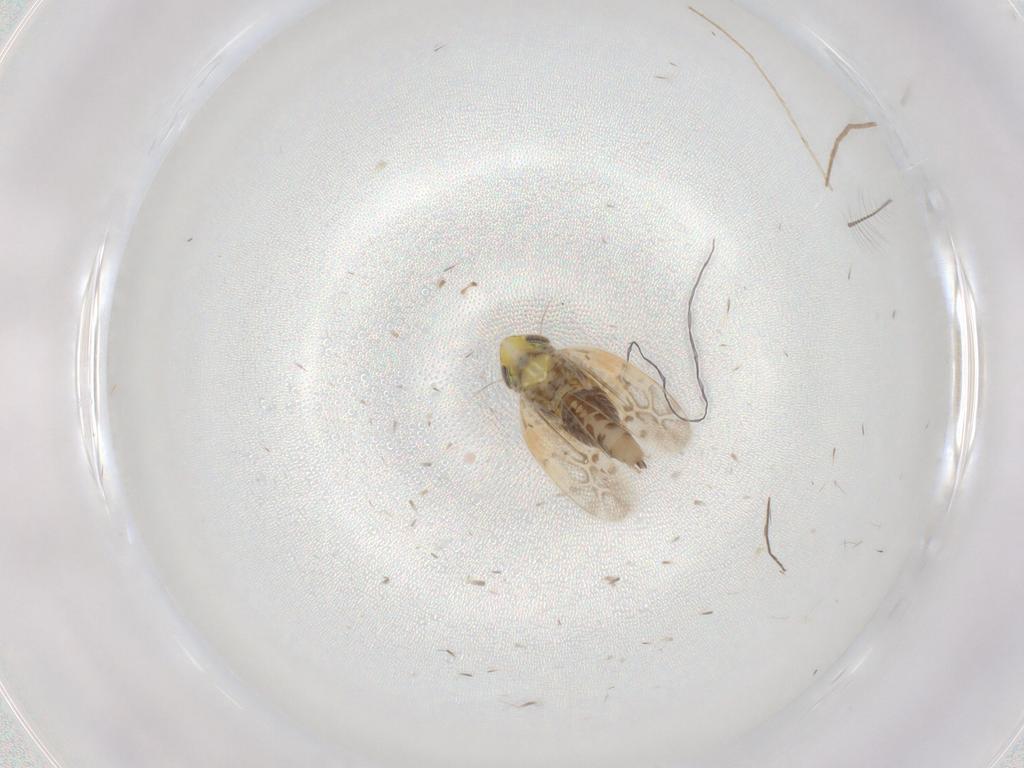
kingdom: Animalia
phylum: Arthropoda
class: Insecta
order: Hemiptera
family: Cicadellidae
